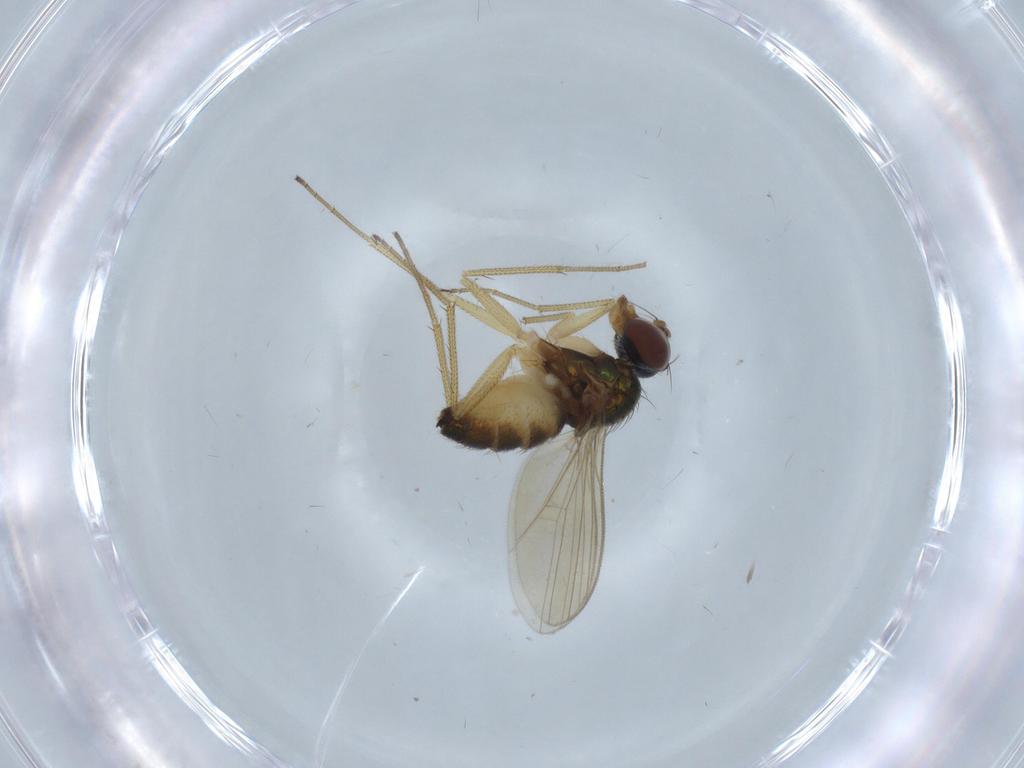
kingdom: Animalia
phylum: Arthropoda
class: Insecta
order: Diptera
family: Dolichopodidae
